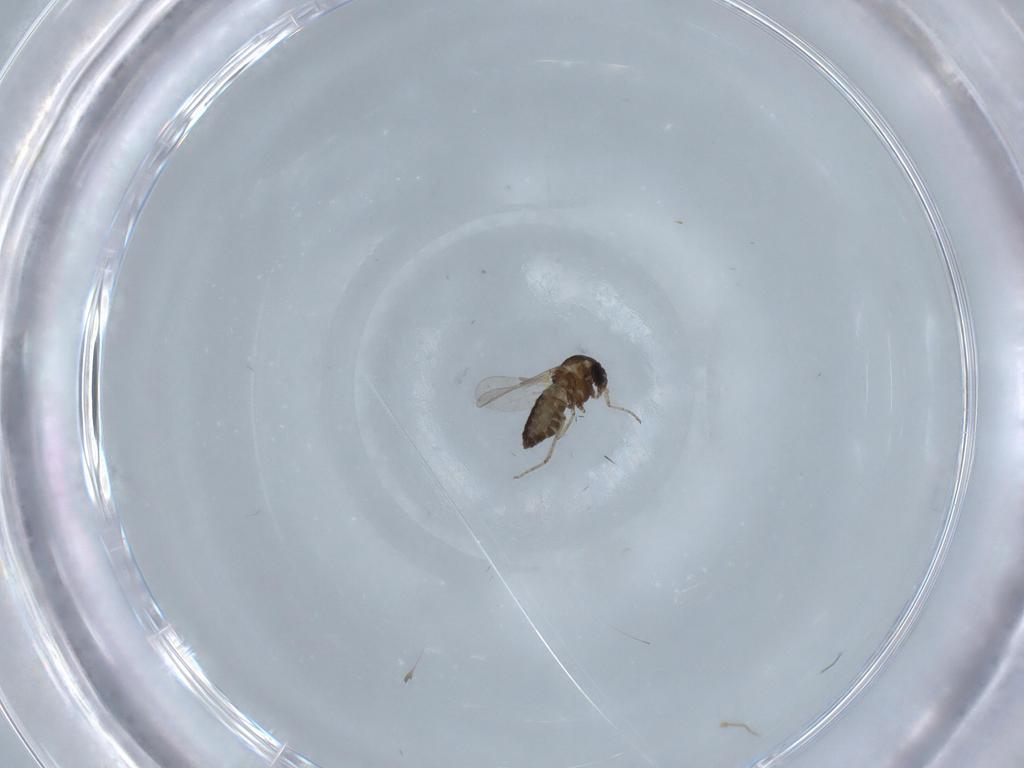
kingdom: Animalia
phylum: Arthropoda
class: Insecta
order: Diptera
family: Ceratopogonidae
